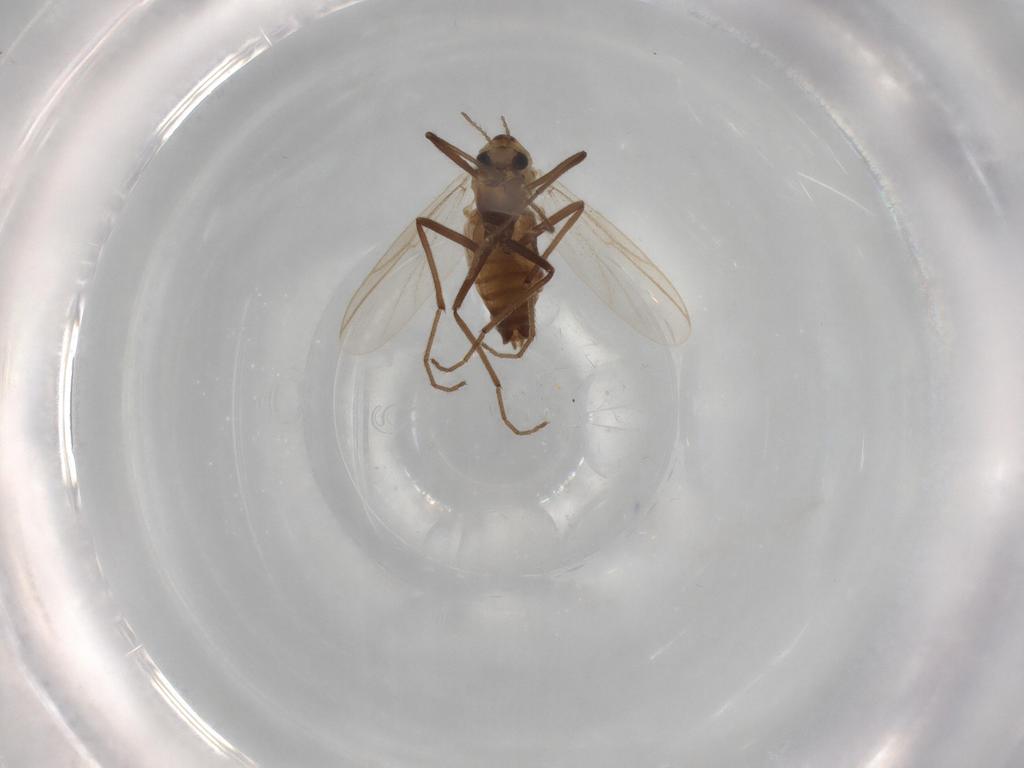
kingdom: Animalia
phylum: Arthropoda
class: Insecta
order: Diptera
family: Chironomidae
